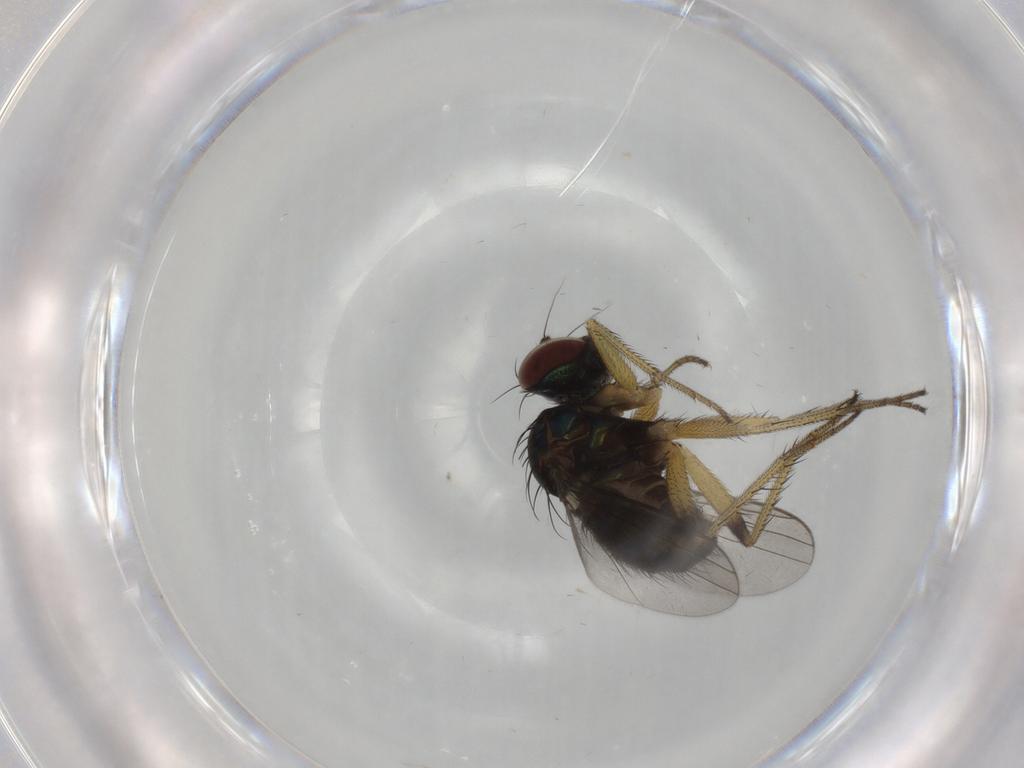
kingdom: Animalia
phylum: Arthropoda
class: Insecta
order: Diptera
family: Dolichopodidae
